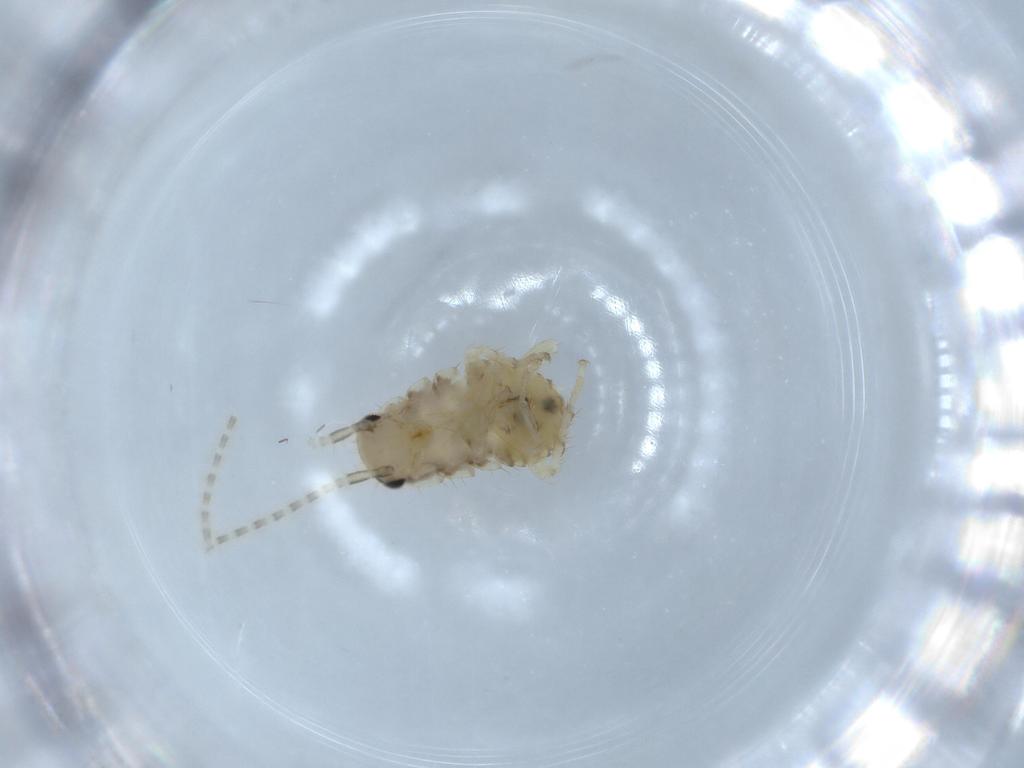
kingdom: Animalia
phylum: Arthropoda
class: Insecta
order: Blattodea
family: Ectobiidae
